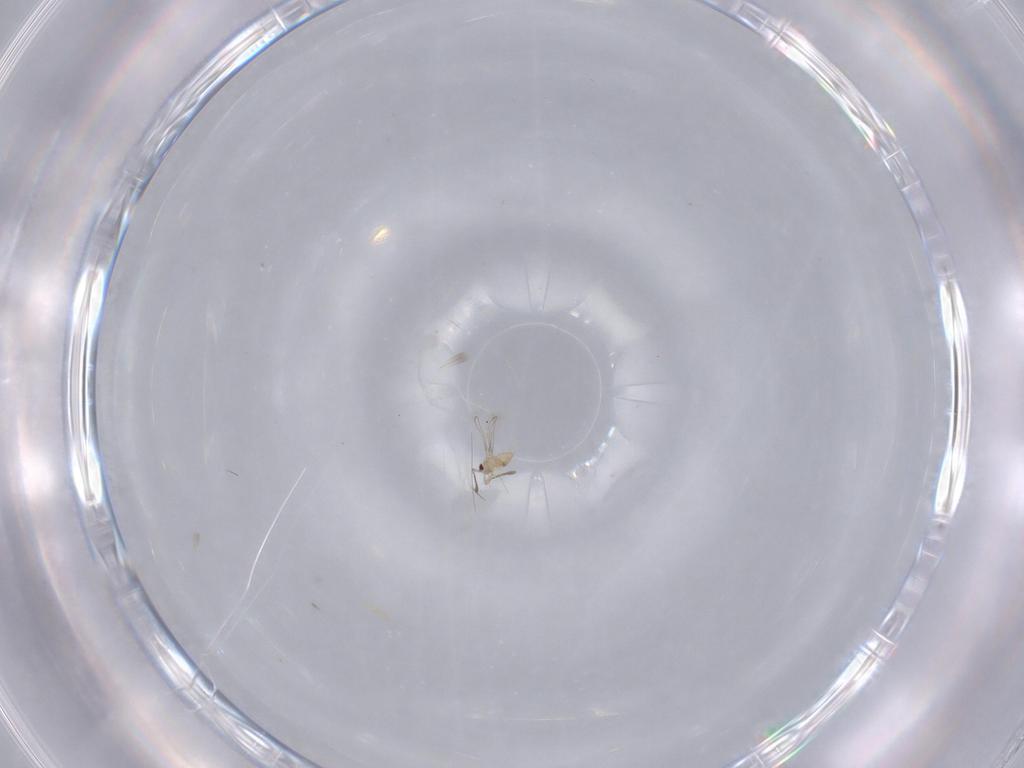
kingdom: Animalia
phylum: Arthropoda
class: Insecta
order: Hymenoptera
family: Mymaridae
